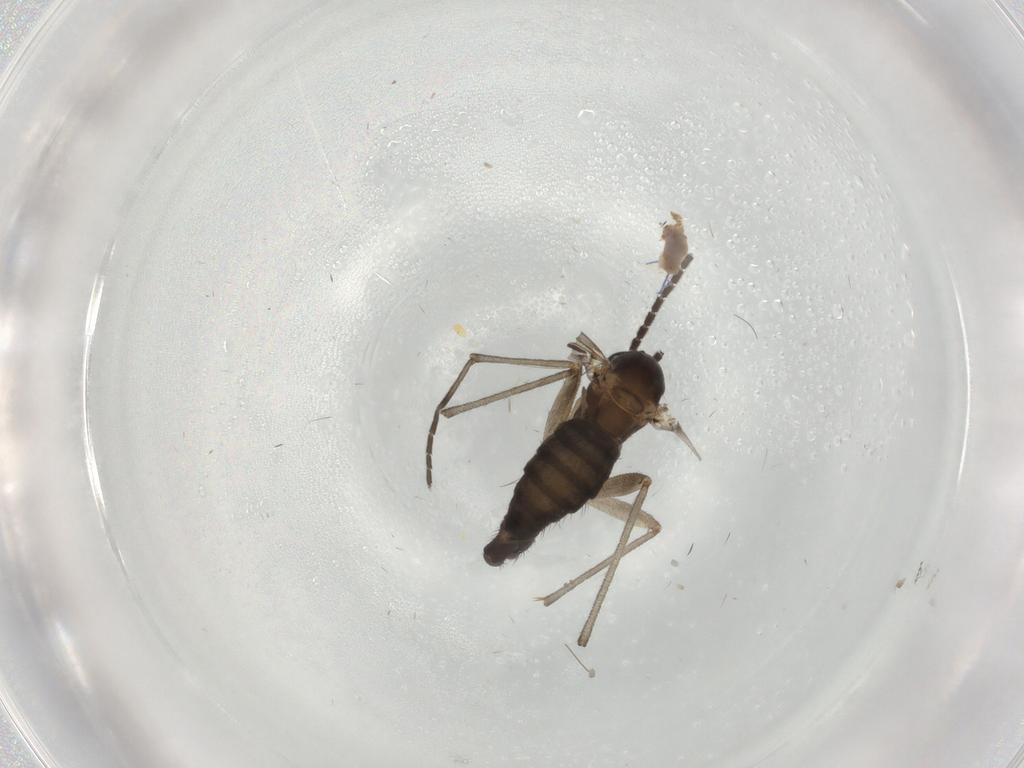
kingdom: Animalia
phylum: Arthropoda
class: Insecta
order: Diptera
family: Sciaridae
